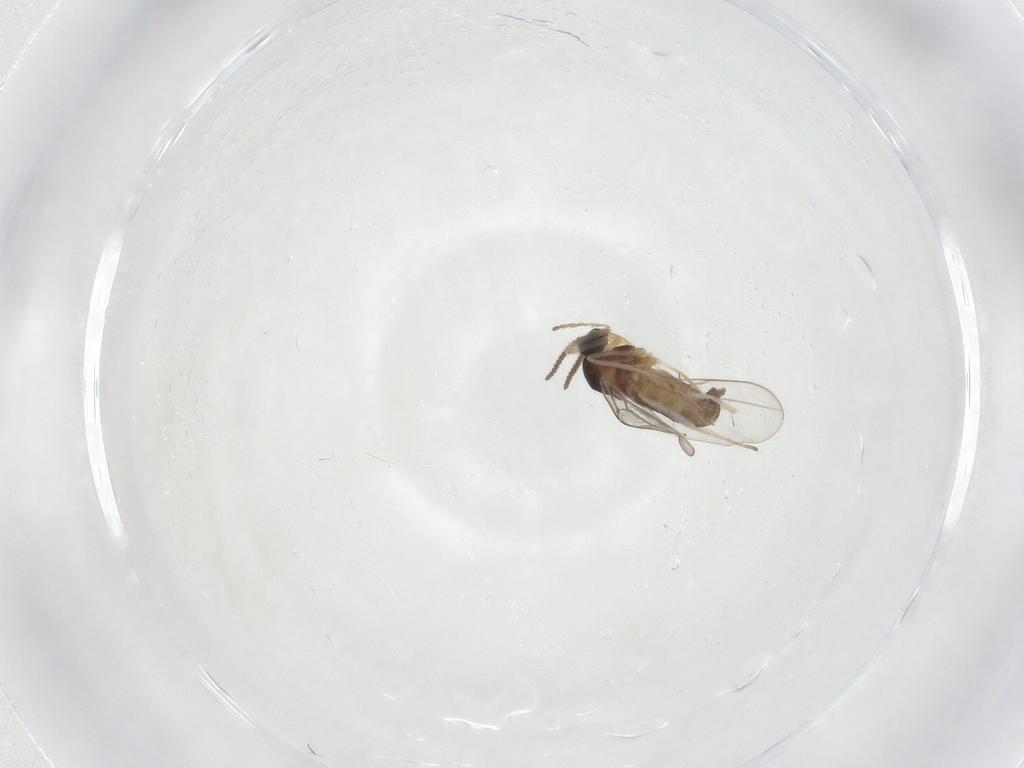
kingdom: Animalia
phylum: Arthropoda
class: Insecta
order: Diptera
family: Cecidomyiidae
